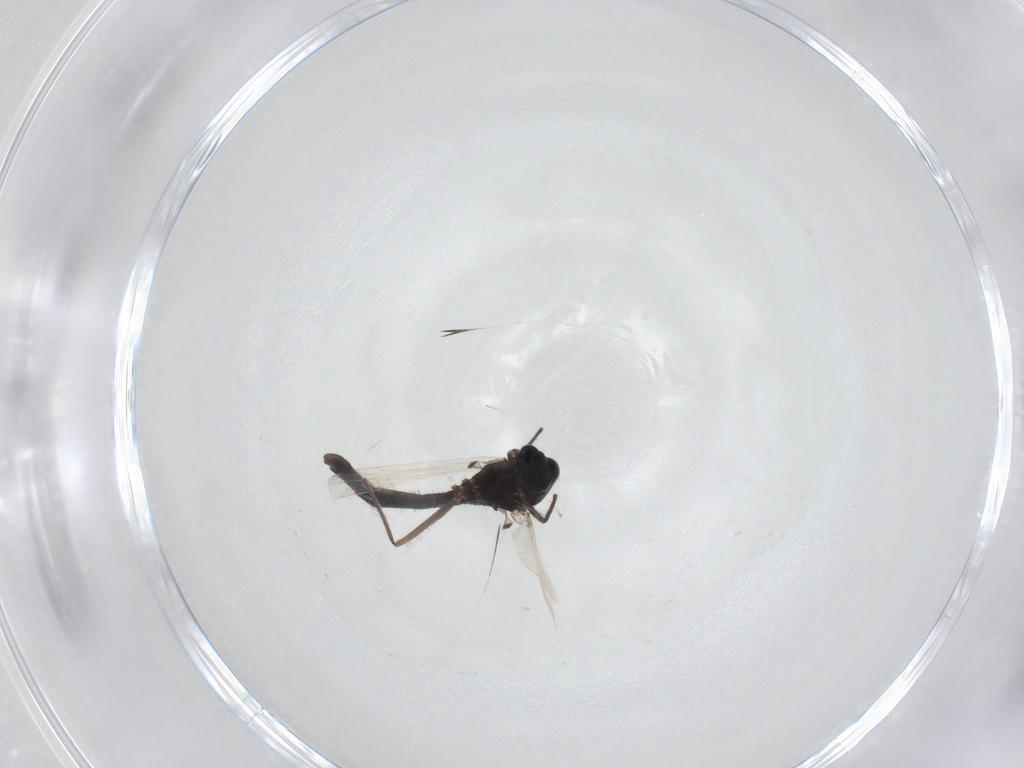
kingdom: Animalia
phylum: Arthropoda
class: Insecta
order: Diptera
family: Chironomidae
